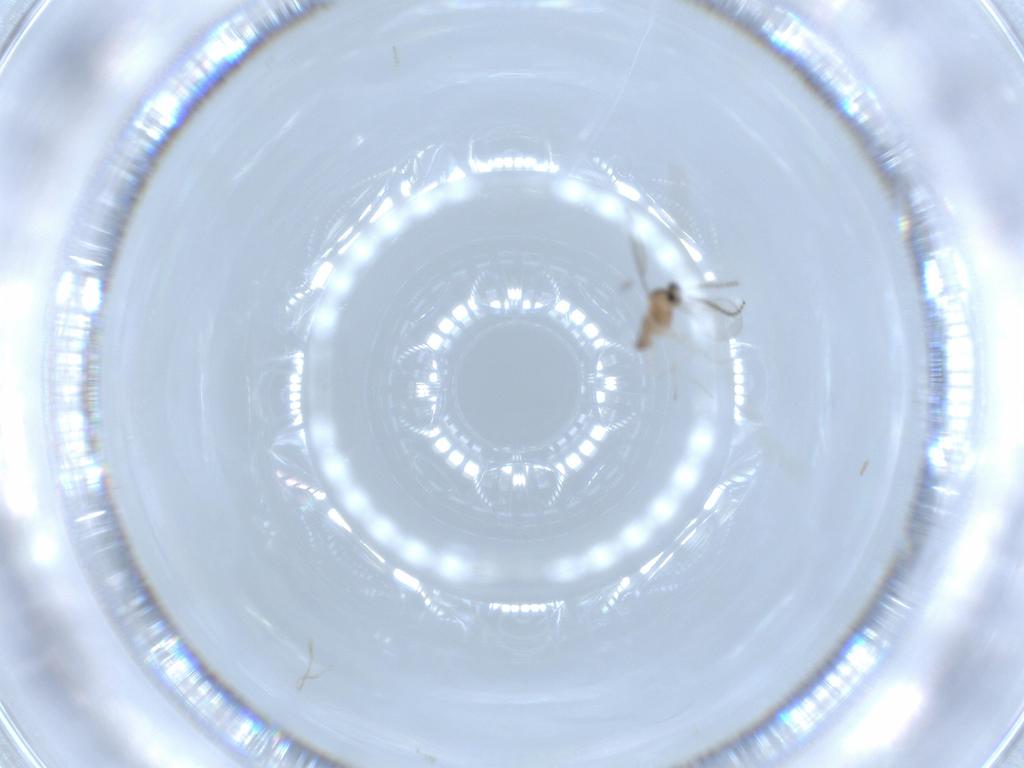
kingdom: Animalia
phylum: Arthropoda
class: Insecta
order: Diptera
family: Cecidomyiidae
